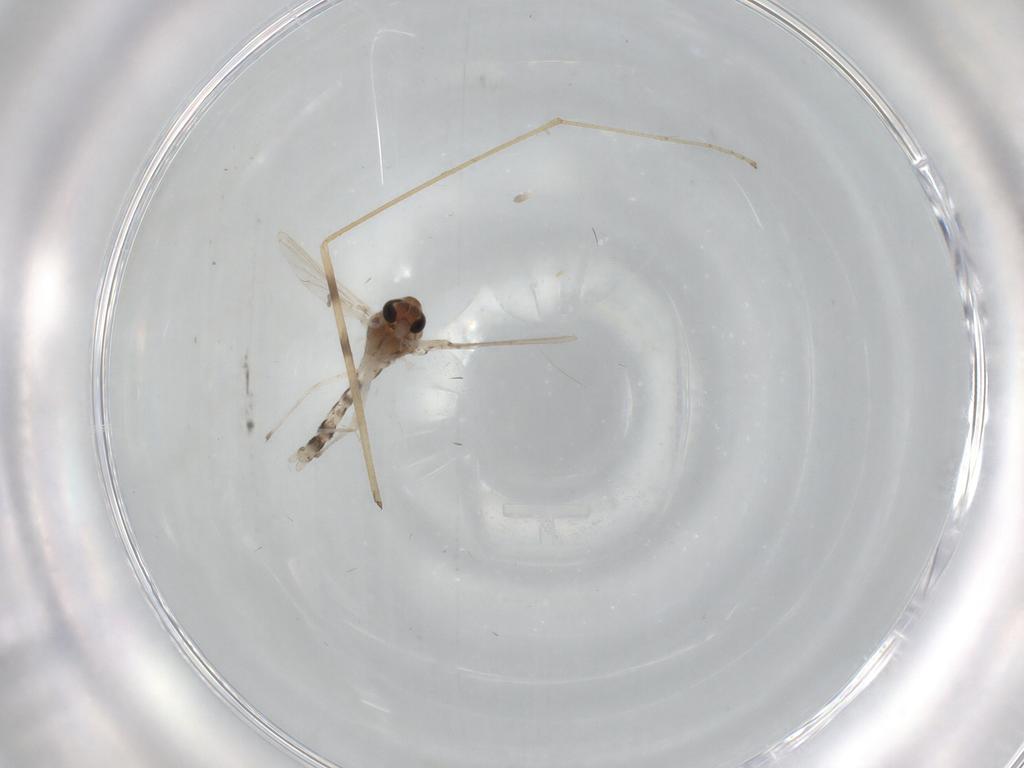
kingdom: Animalia
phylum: Arthropoda
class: Insecta
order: Diptera
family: Chironomidae
